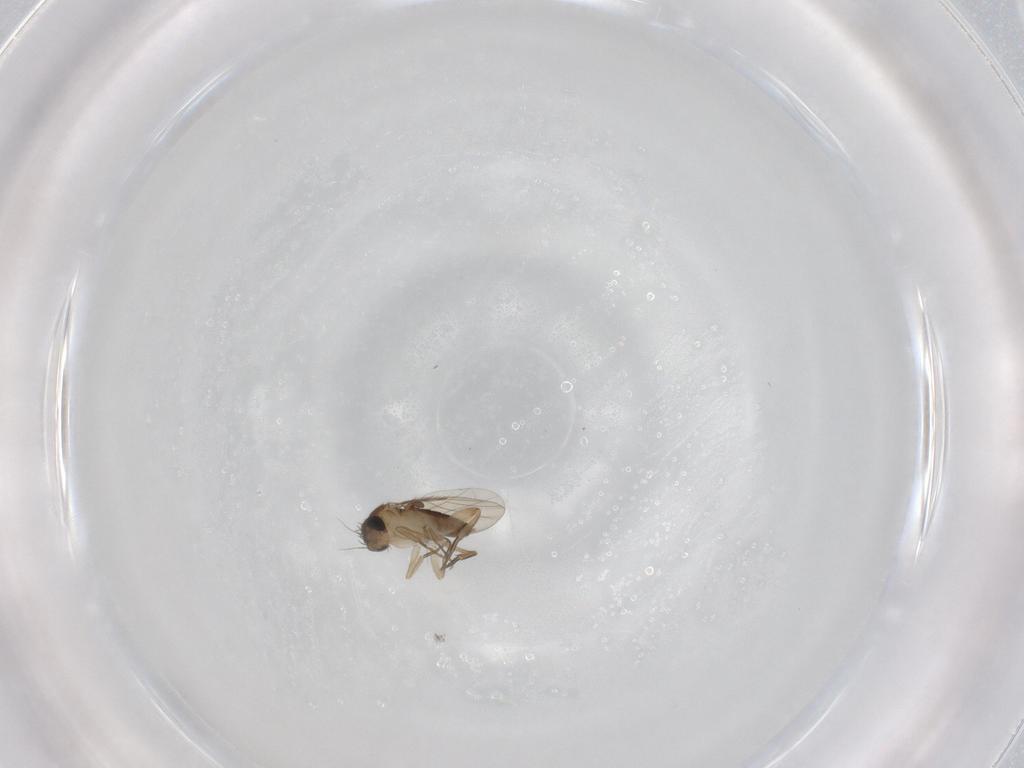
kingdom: Animalia
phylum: Arthropoda
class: Insecta
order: Diptera
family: Phoridae
